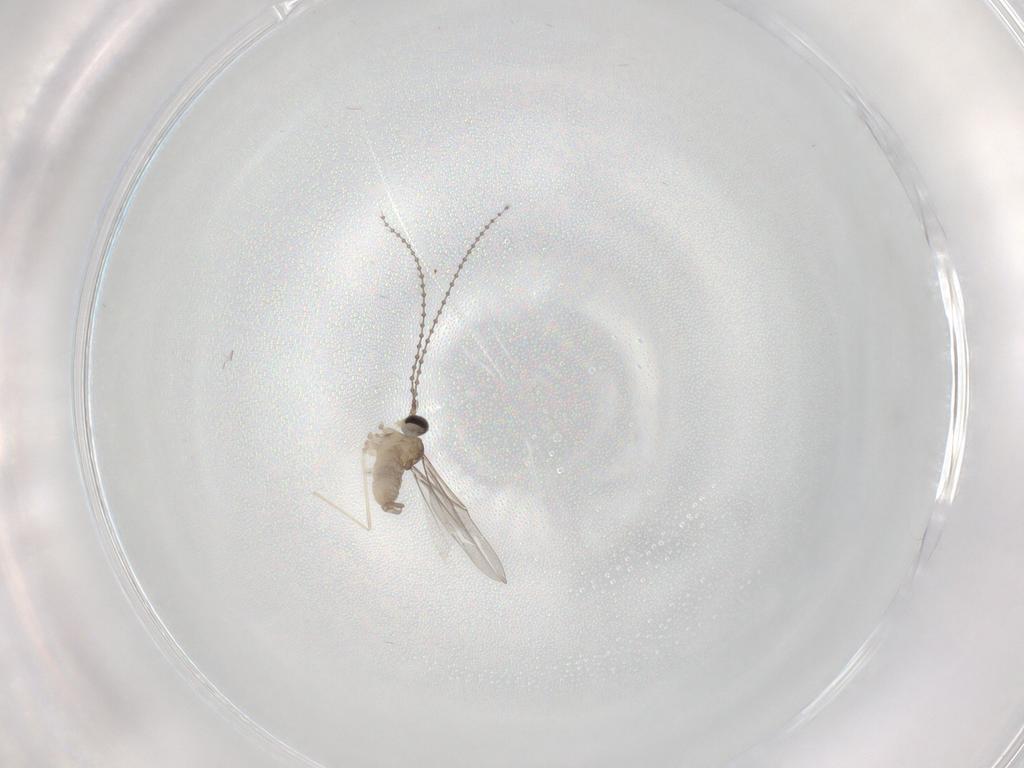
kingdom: Animalia
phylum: Arthropoda
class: Insecta
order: Diptera
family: Cecidomyiidae
